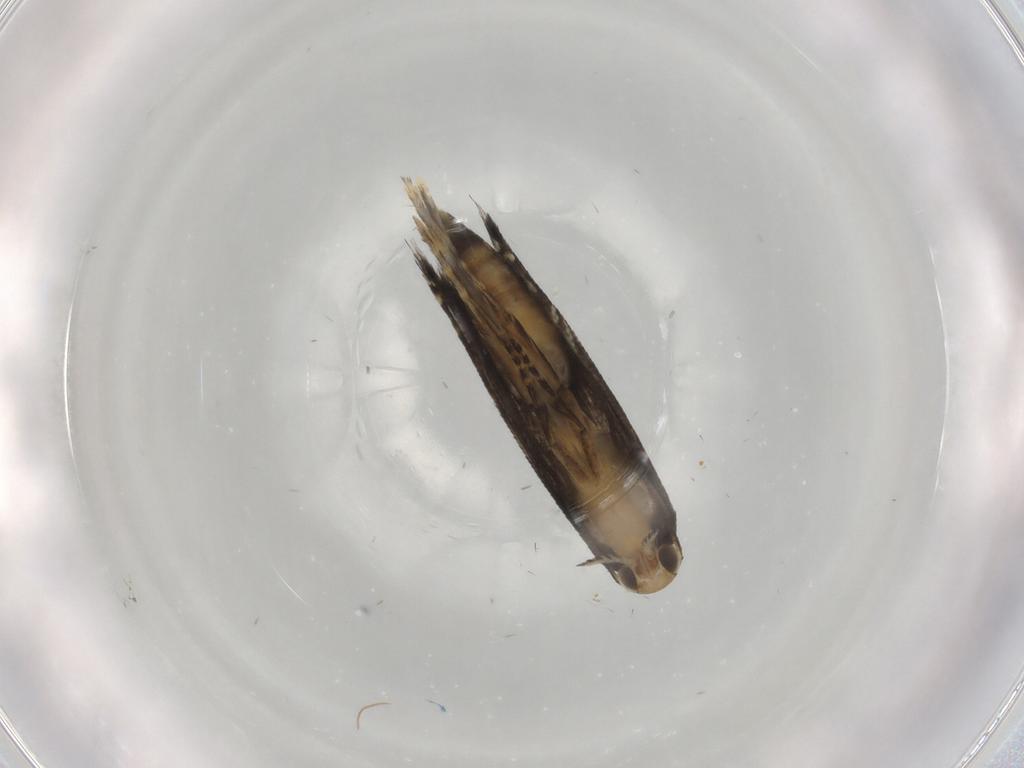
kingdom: Animalia
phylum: Arthropoda
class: Insecta
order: Lepidoptera
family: Glyphipterigidae
